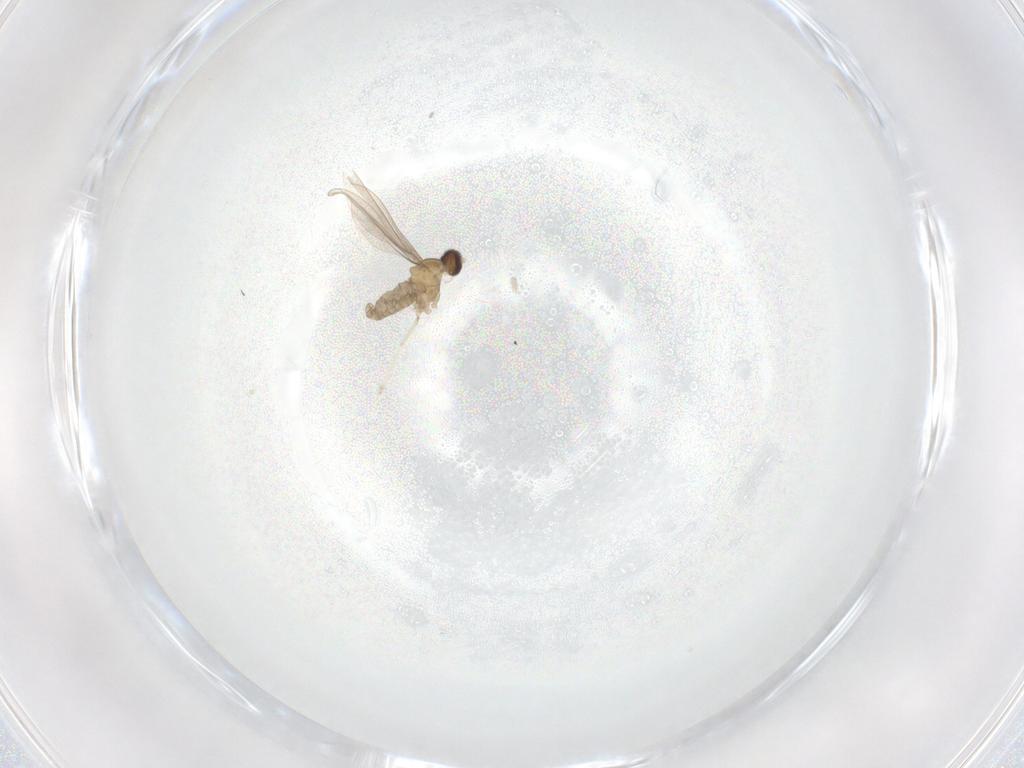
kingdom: Animalia
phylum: Arthropoda
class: Insecta
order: Diptera
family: Cecidomyiidae
